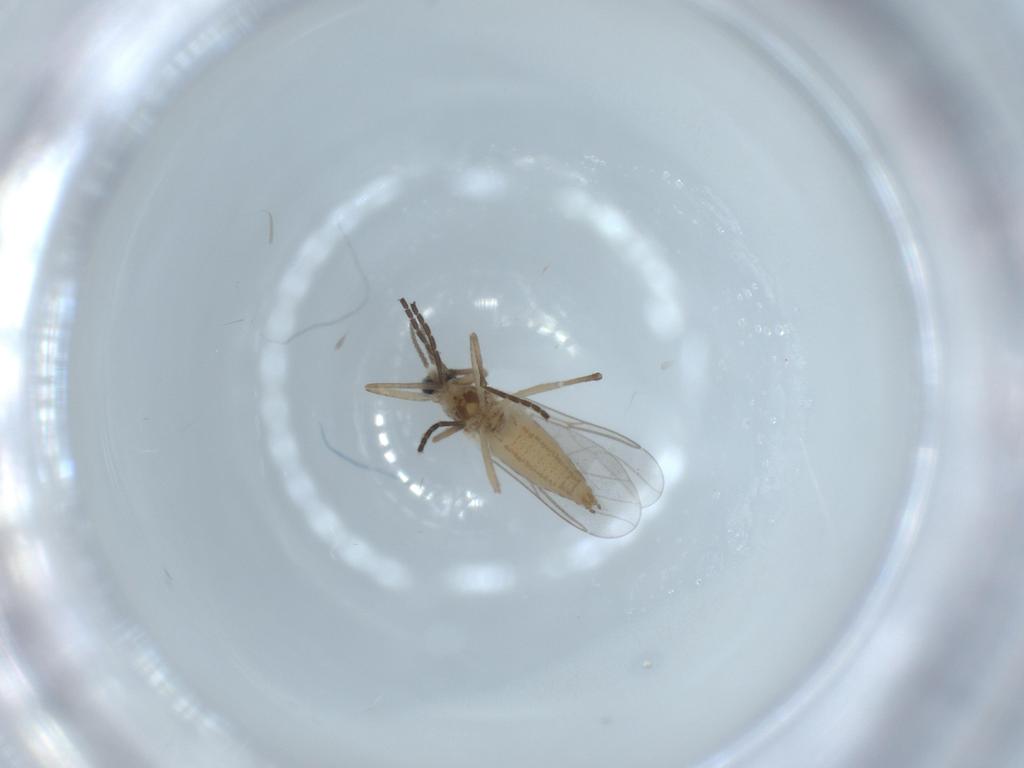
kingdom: Animalia
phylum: Arthropoda
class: Insecta
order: Diptera
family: Cecidomyiidae
